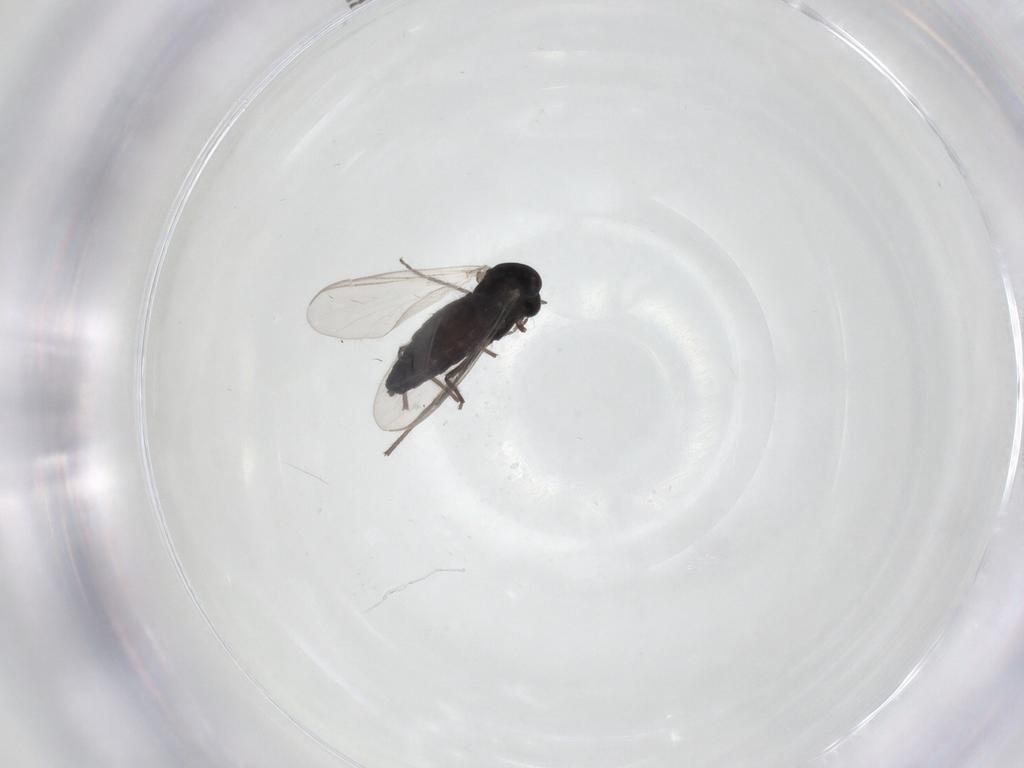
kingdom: Animalia
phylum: Arthropoda
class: Insecta
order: Diptera
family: Chironomidae
